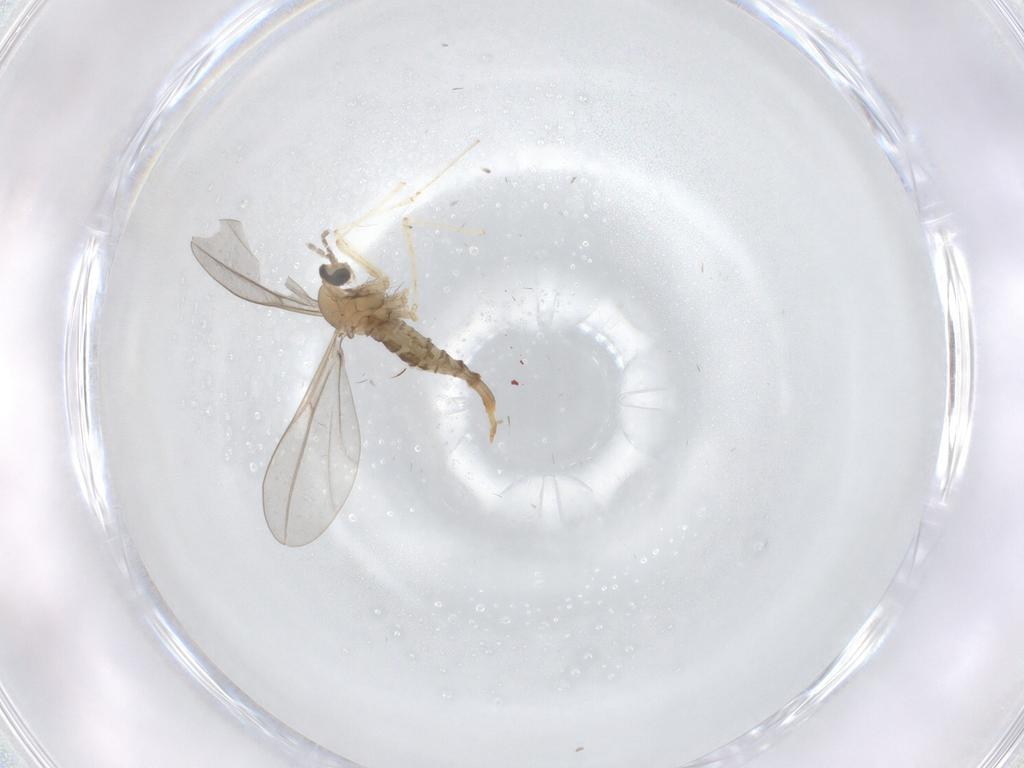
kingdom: Animalia
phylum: Arthropoda
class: Insecta
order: Diptera
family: Cecidomyiidae
